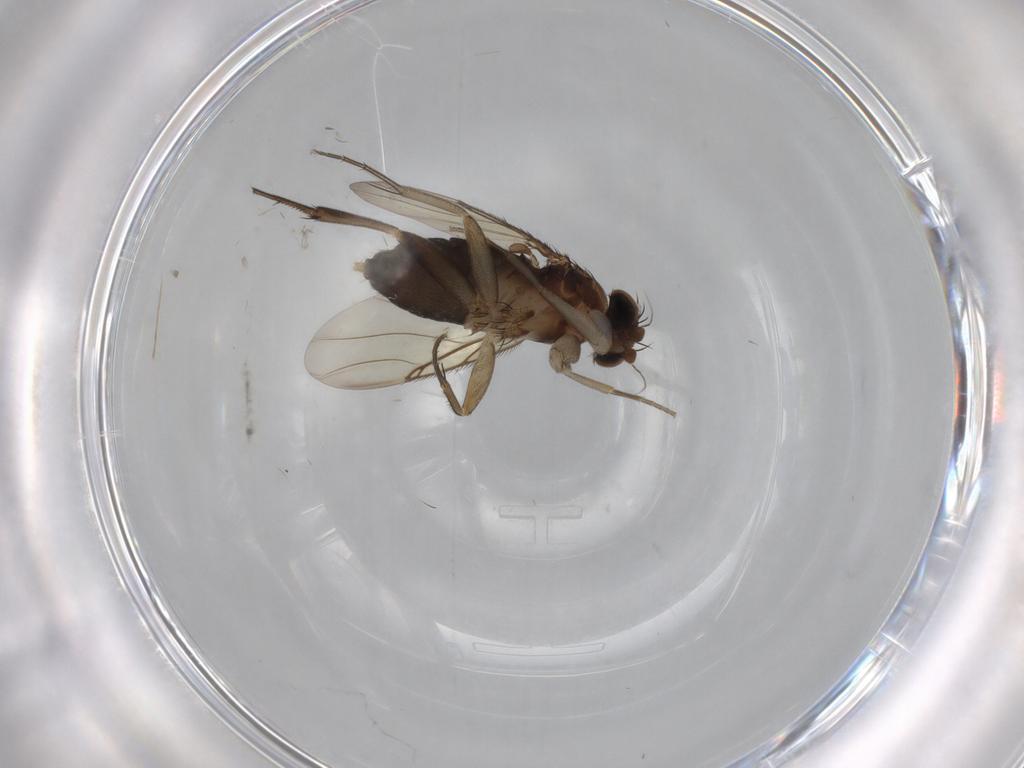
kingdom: Animalia
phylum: Arthropoda
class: Insecta
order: Diptera
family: Phoridae
